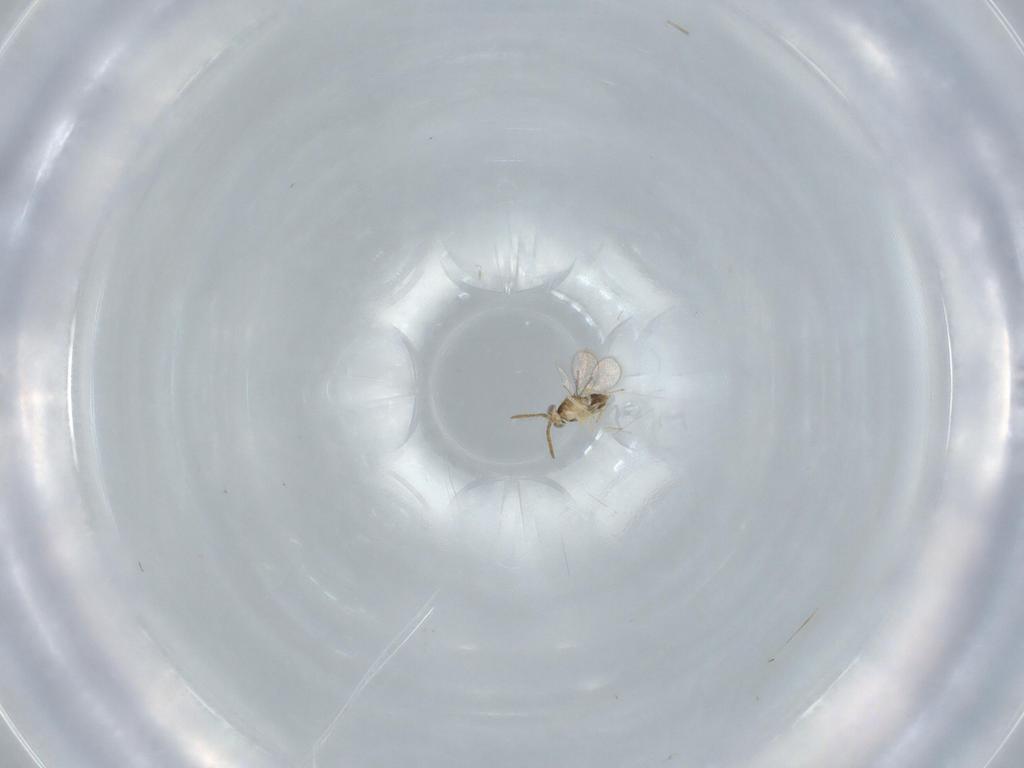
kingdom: Animalia
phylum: Arthropoda
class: Insecta
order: Hymenoptera
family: Aphelinidae
